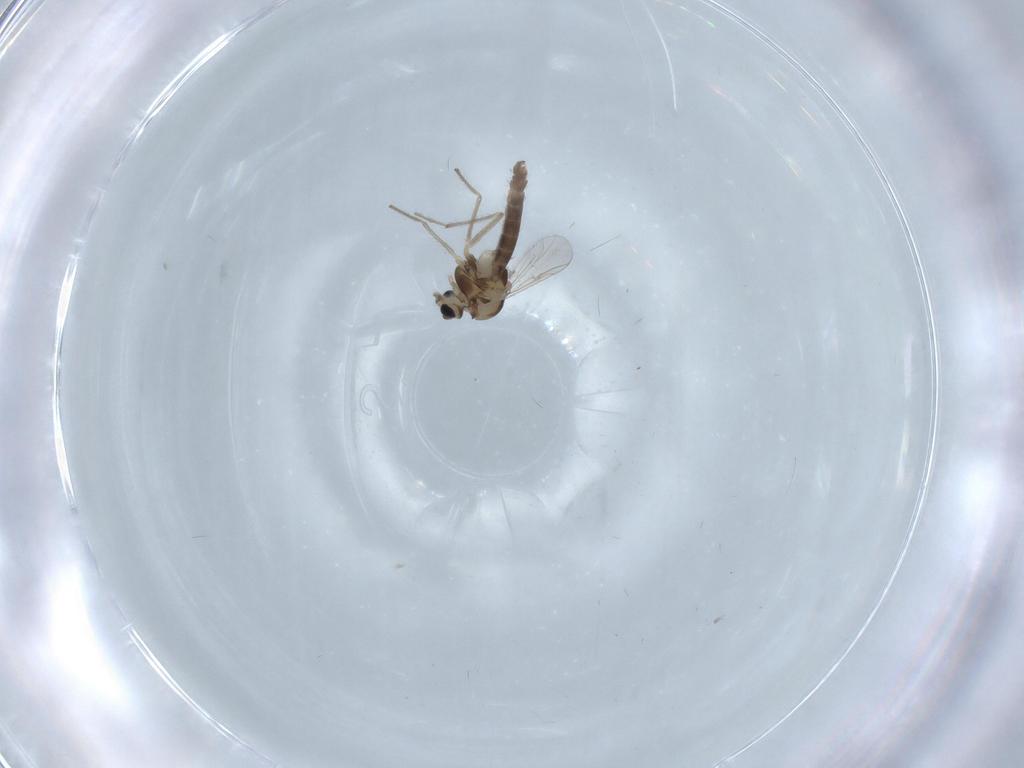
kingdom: Animalia
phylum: Arthropoda
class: Insecta
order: Diptera
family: Chironomidae
